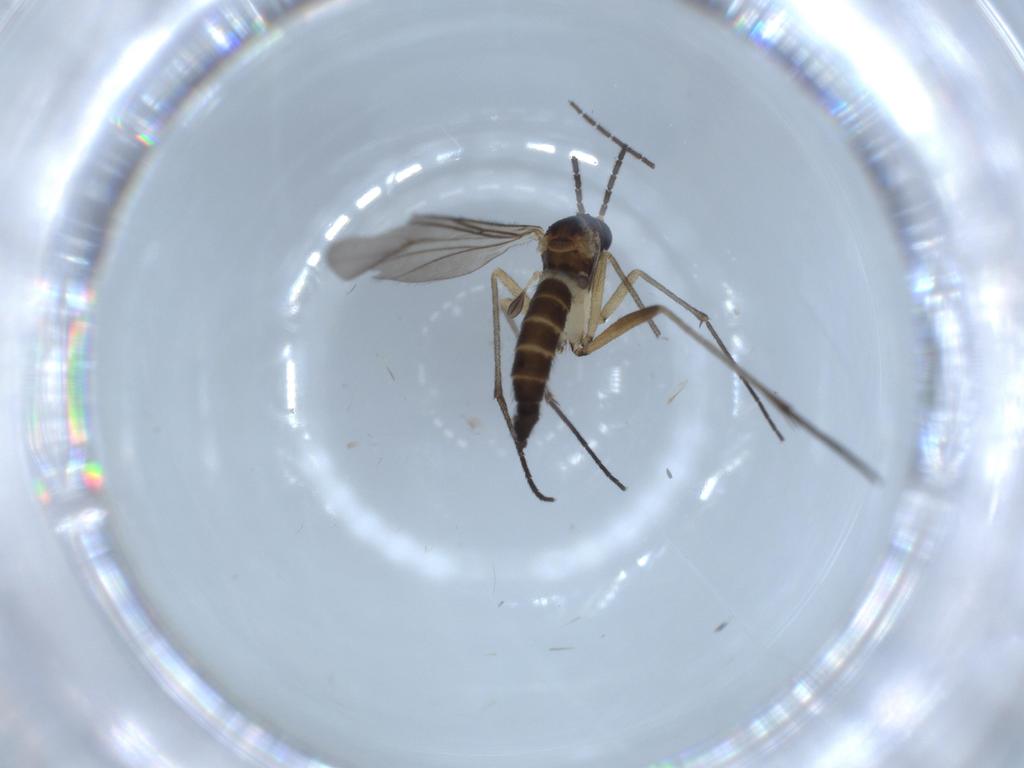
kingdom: Animalia
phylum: Arthropoda
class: Insecta
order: Diptera
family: Sciaridae
